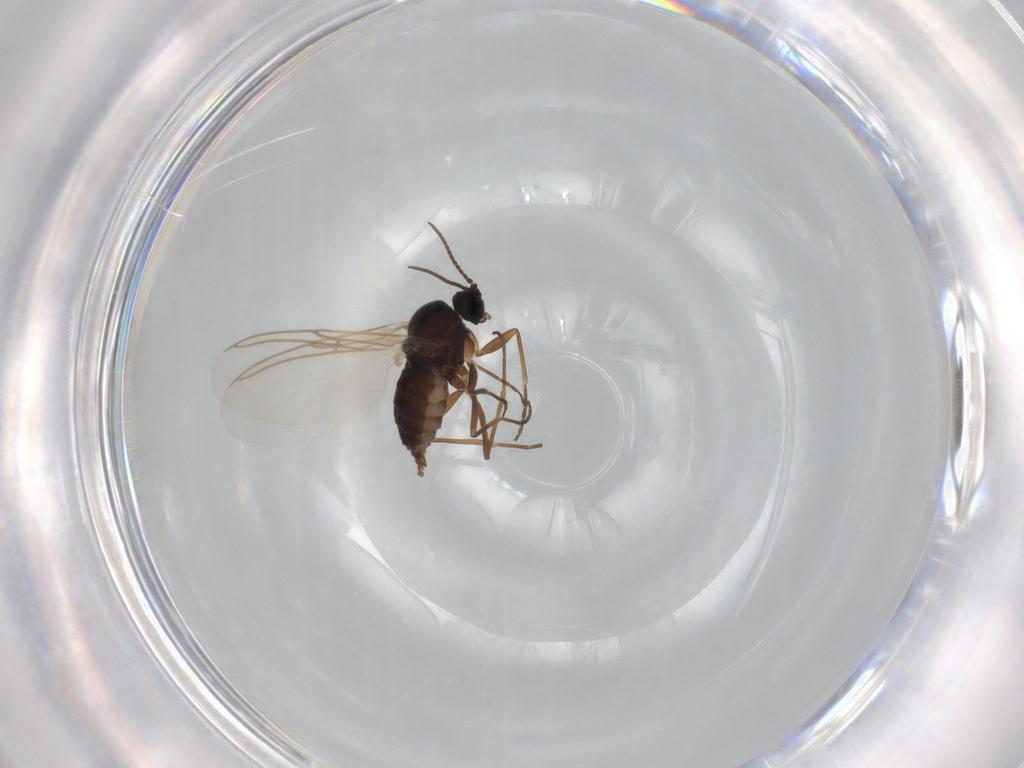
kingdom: Animalia
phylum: Arthropoda
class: Insecta
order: Diptera
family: Sciaridae
